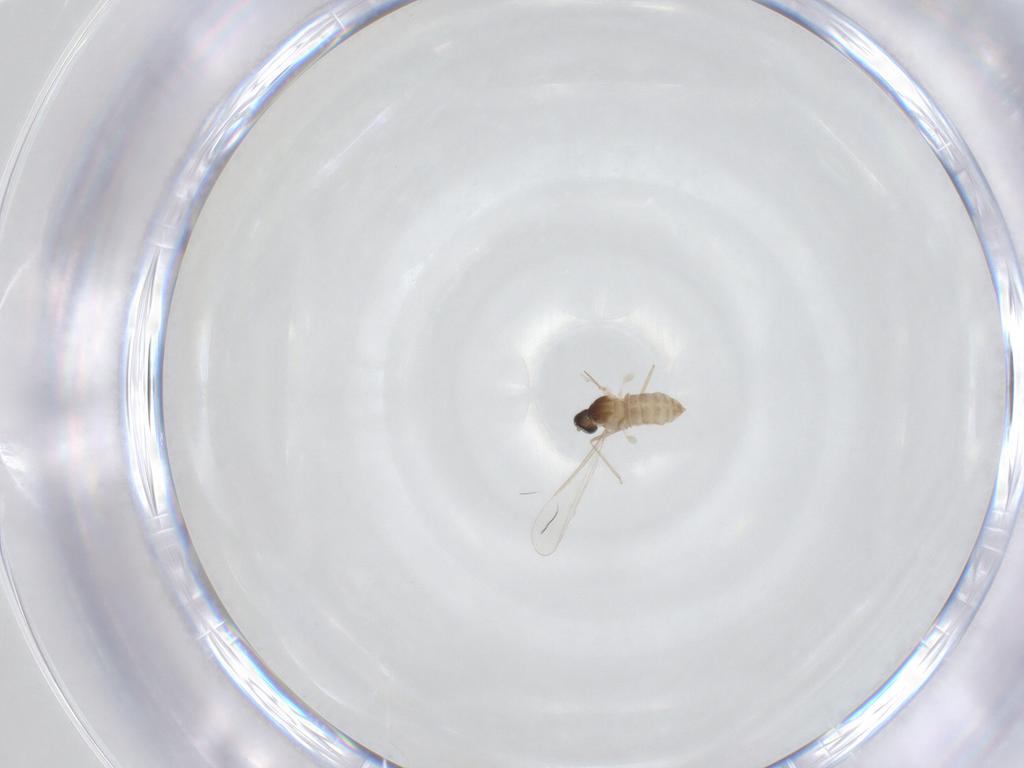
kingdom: Animalia
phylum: Arthropoda
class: Insecta
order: Diptera
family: Cecidomyiidae
